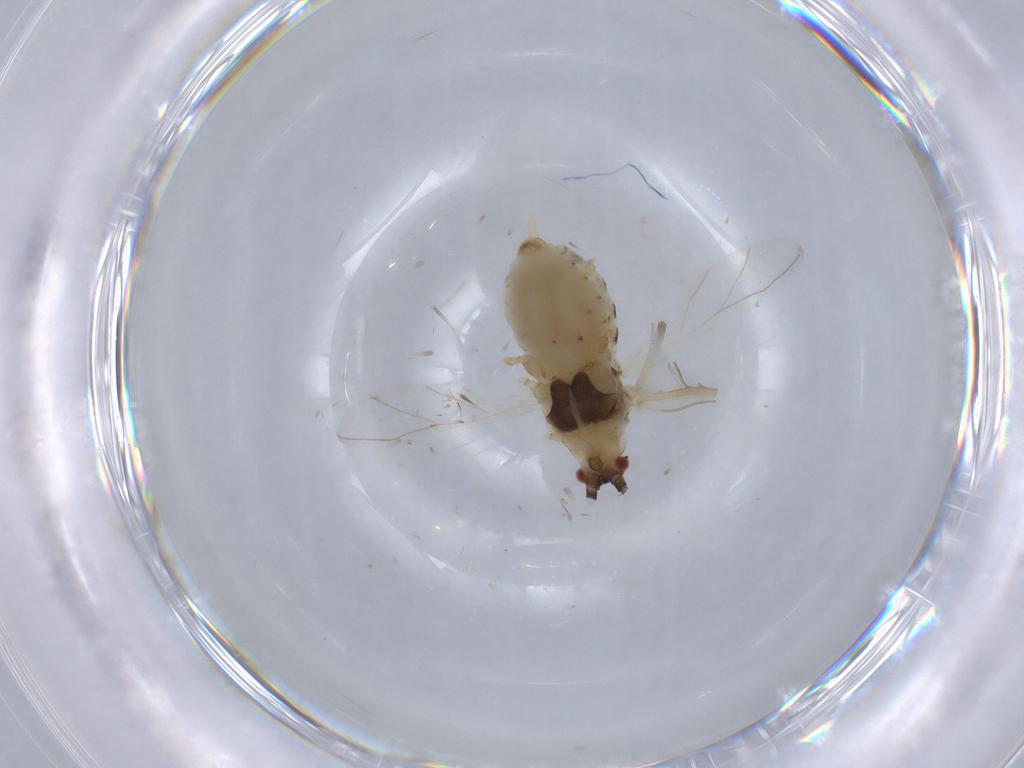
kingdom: Animalia
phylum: Arthropoda
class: Insecta
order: Hemiptera
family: Aphididae
